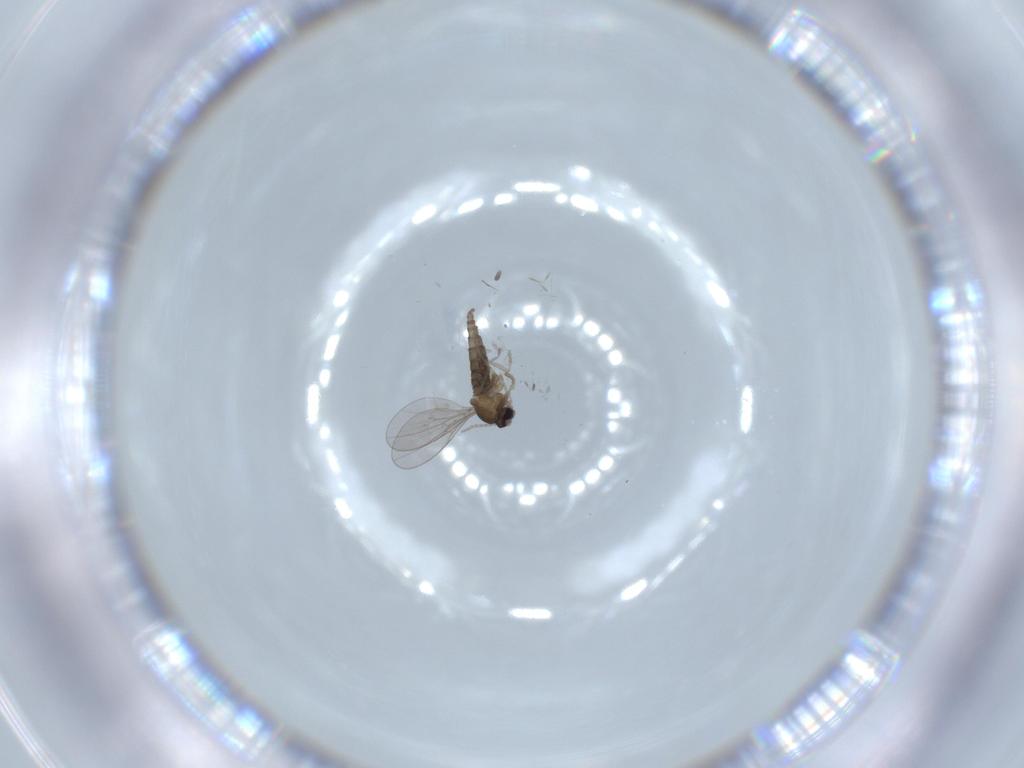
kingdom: Animalia
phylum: Arthropoda
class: Insecta
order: Diptera
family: Cecidomyiidae
